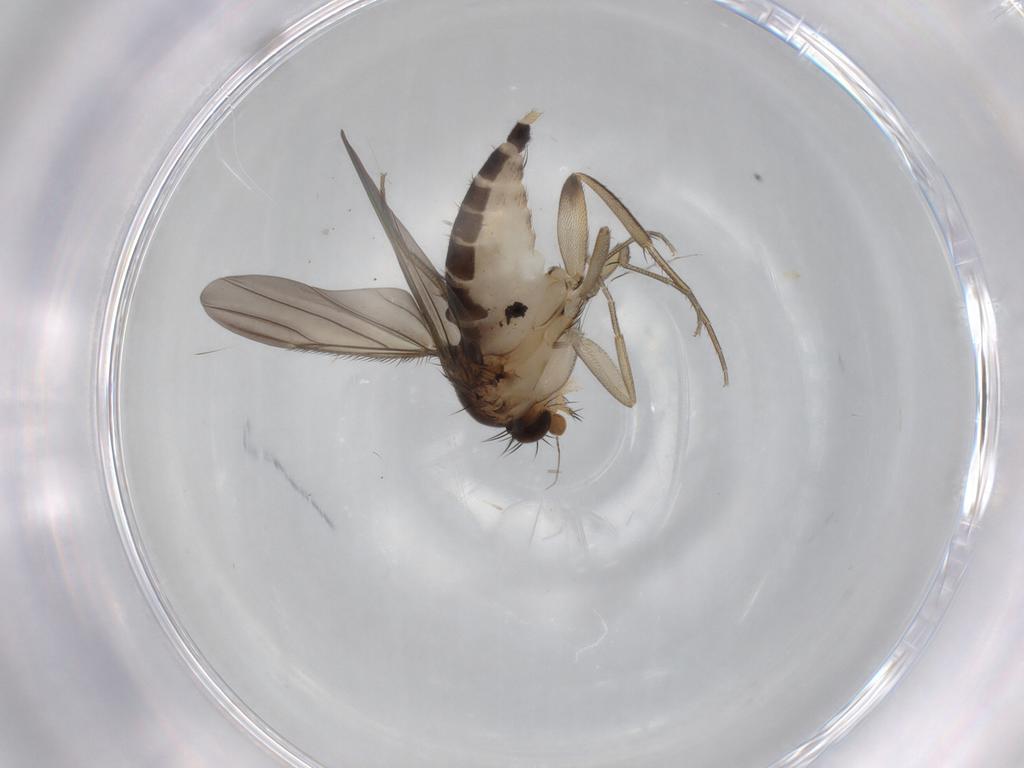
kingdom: Animalia
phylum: Arthropoda
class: Insecta
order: Diptera
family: Phoridae
